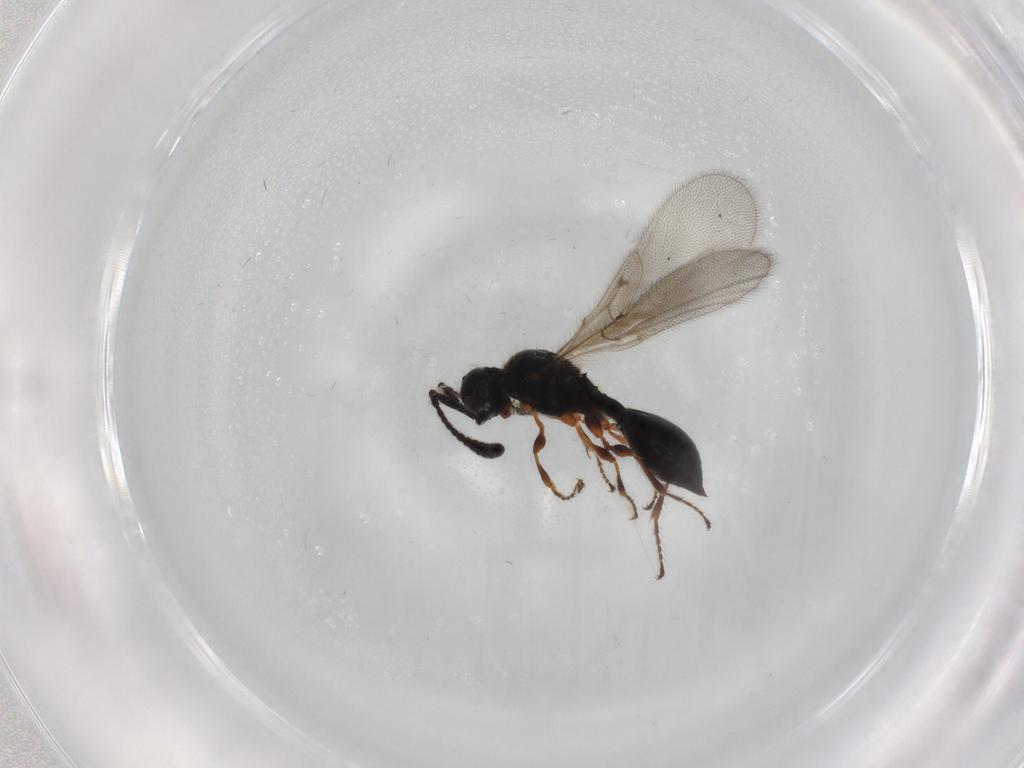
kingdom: Animalia
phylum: Arthropoda
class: Insecta
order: Hymenoptera
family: Diapriidae
